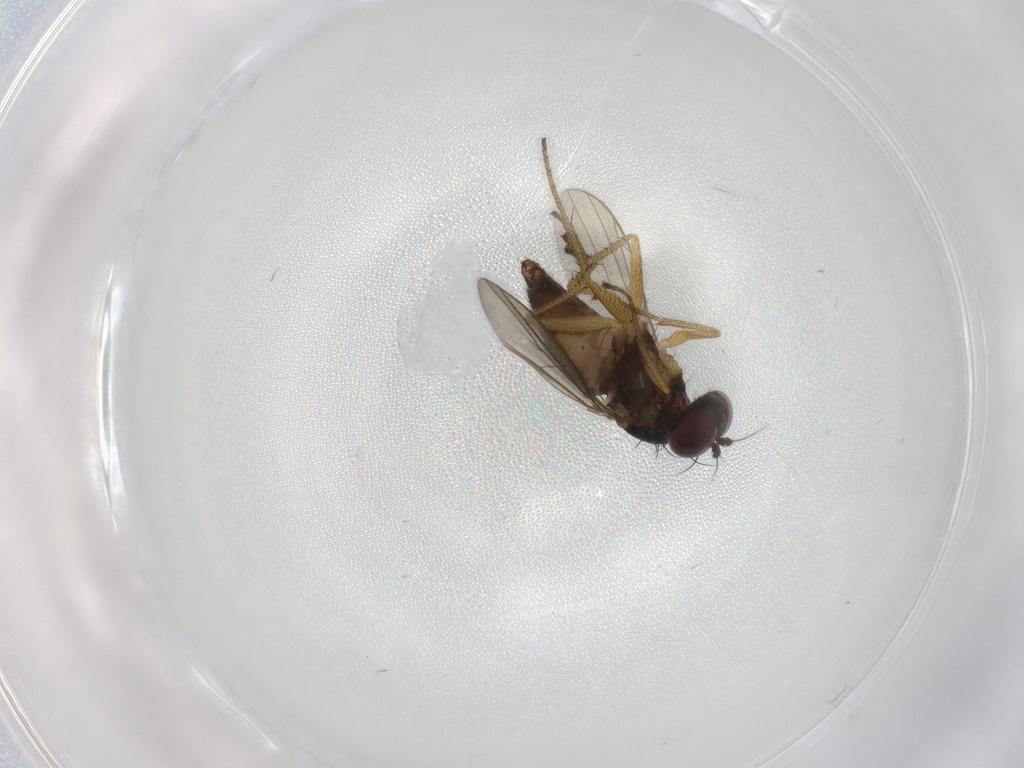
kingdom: Animalia
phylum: Arthropoda
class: Insecta
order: Diptera
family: Dolichopodidae
